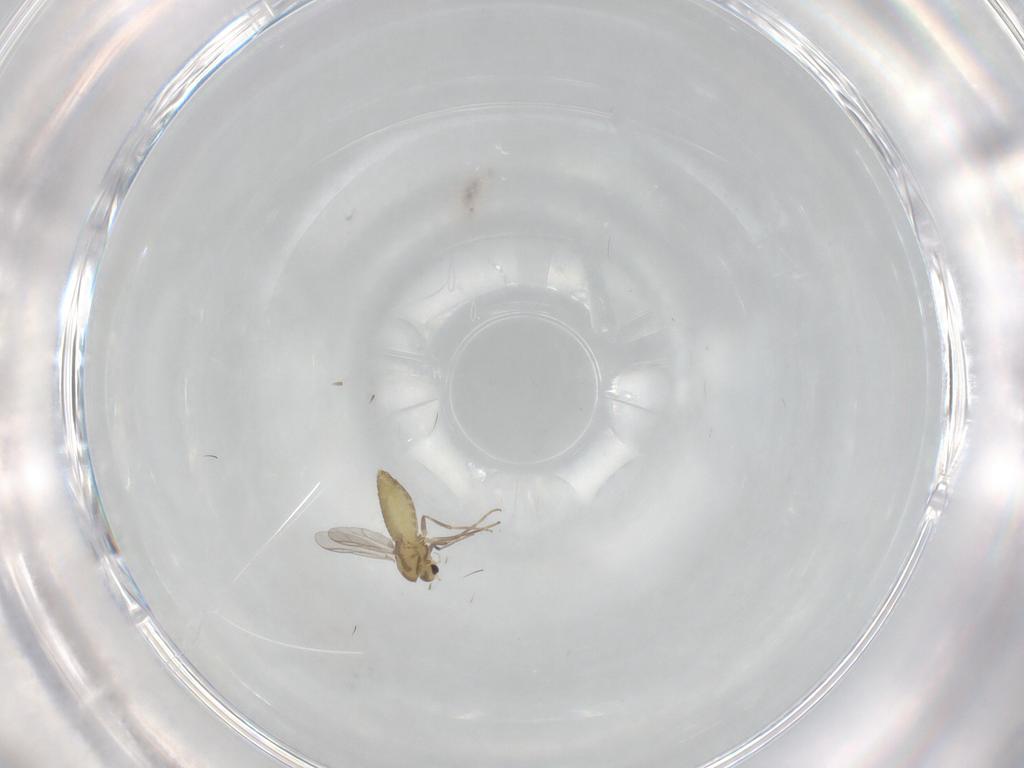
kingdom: Animalia
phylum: Arthropoda
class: Insecta
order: Diptera
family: Chironomidae
